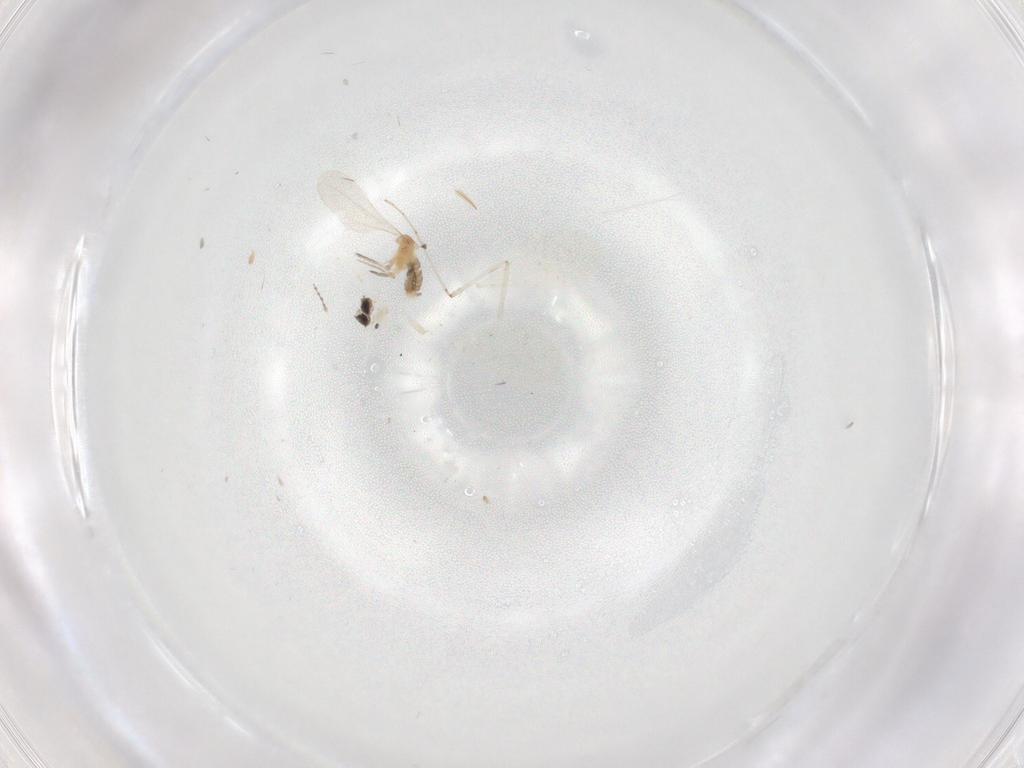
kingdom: Animalia
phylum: Arthropoda
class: Insecta
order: Diptera
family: Cecidomyiidae
